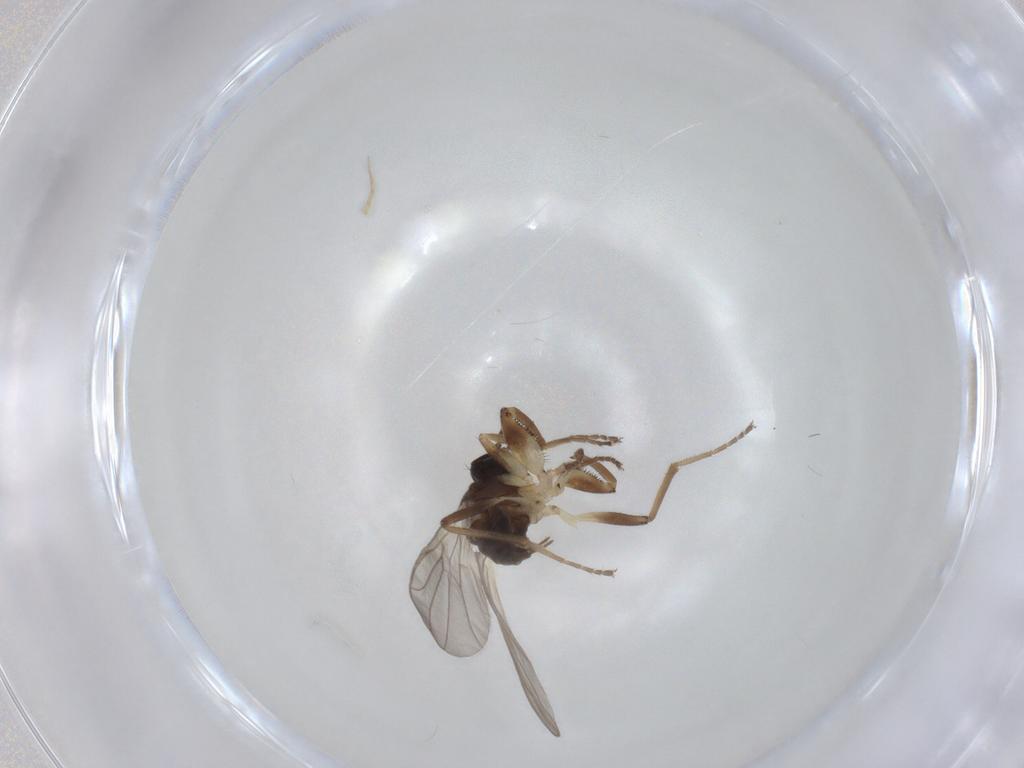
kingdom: Animalia
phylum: Arthropoda
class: Insecta
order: Diptera
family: Hybotidae
